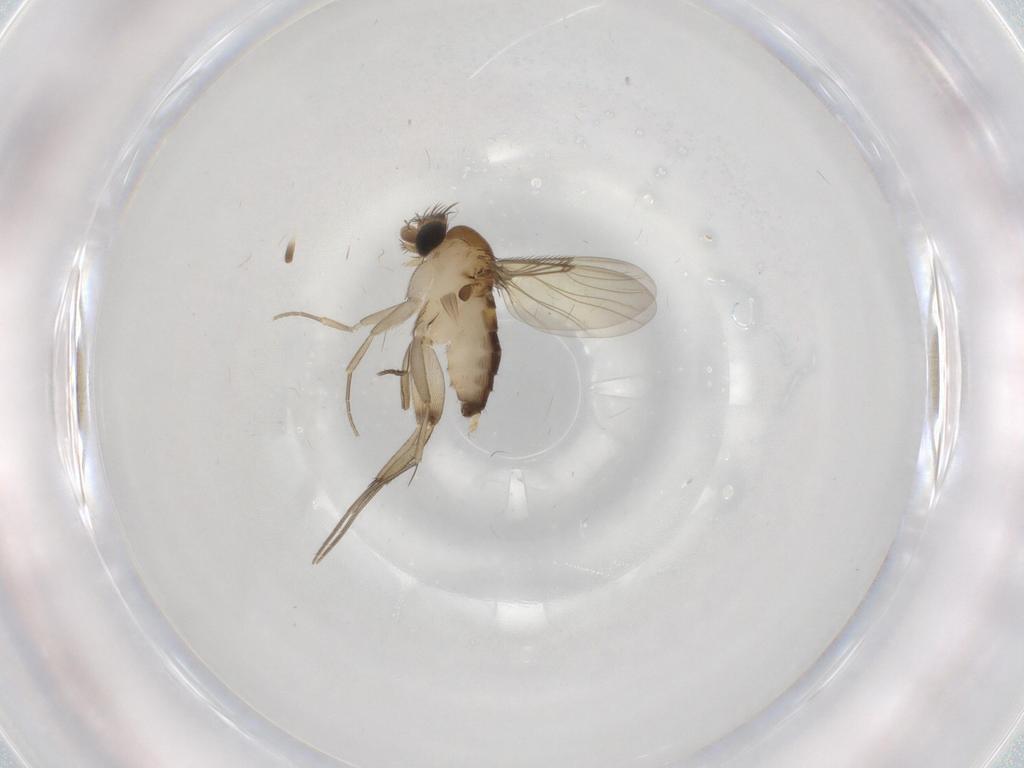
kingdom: Animalia
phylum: Arthropoda
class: Insecta
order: Diptera
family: Phoridae
